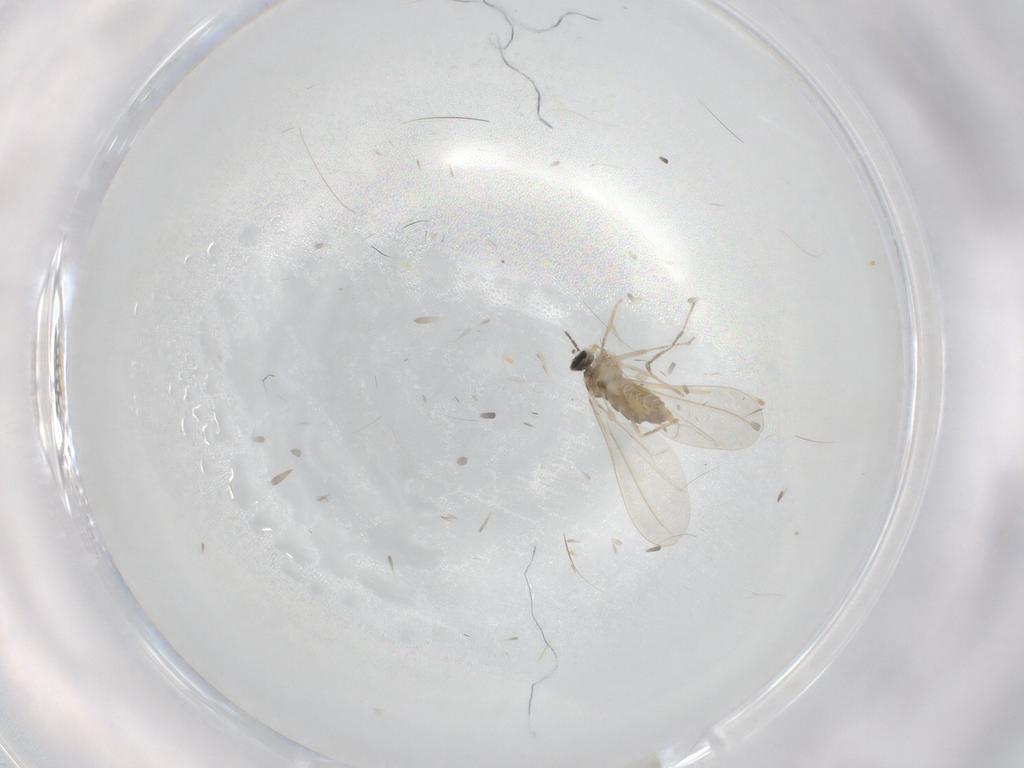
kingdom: Animalia
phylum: Arthropoda
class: Insecta
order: Diptera
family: Cecidomyiidae
